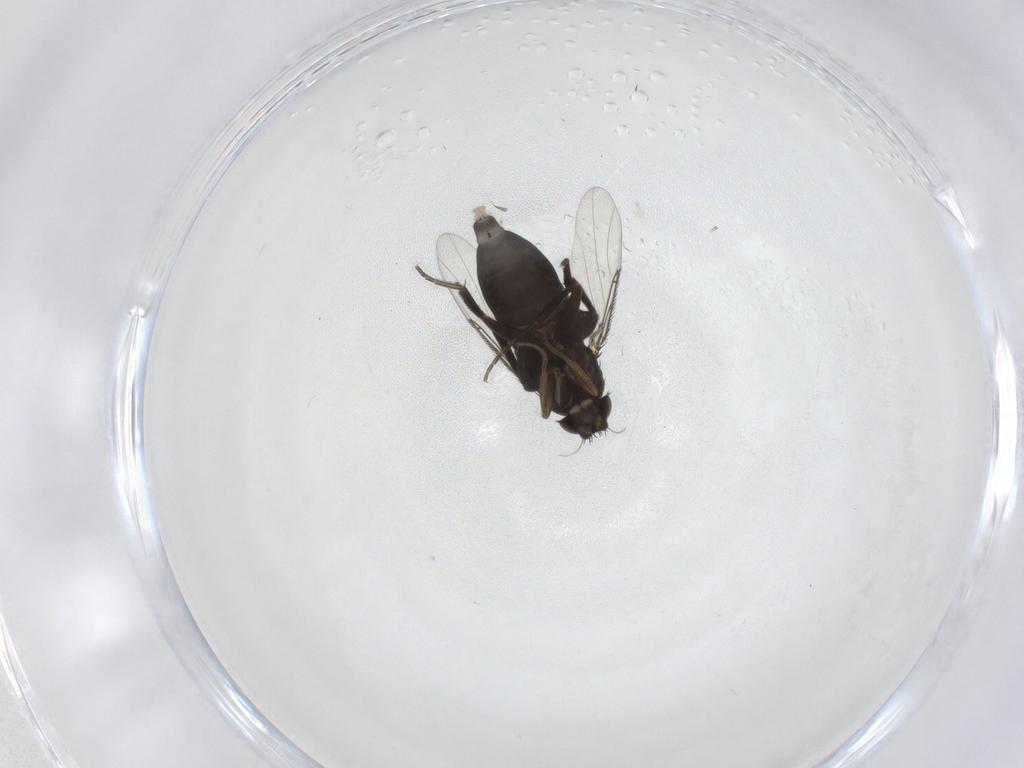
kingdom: Animalia
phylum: Arthropoda
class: Insecta
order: Diptera
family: Phoridae
